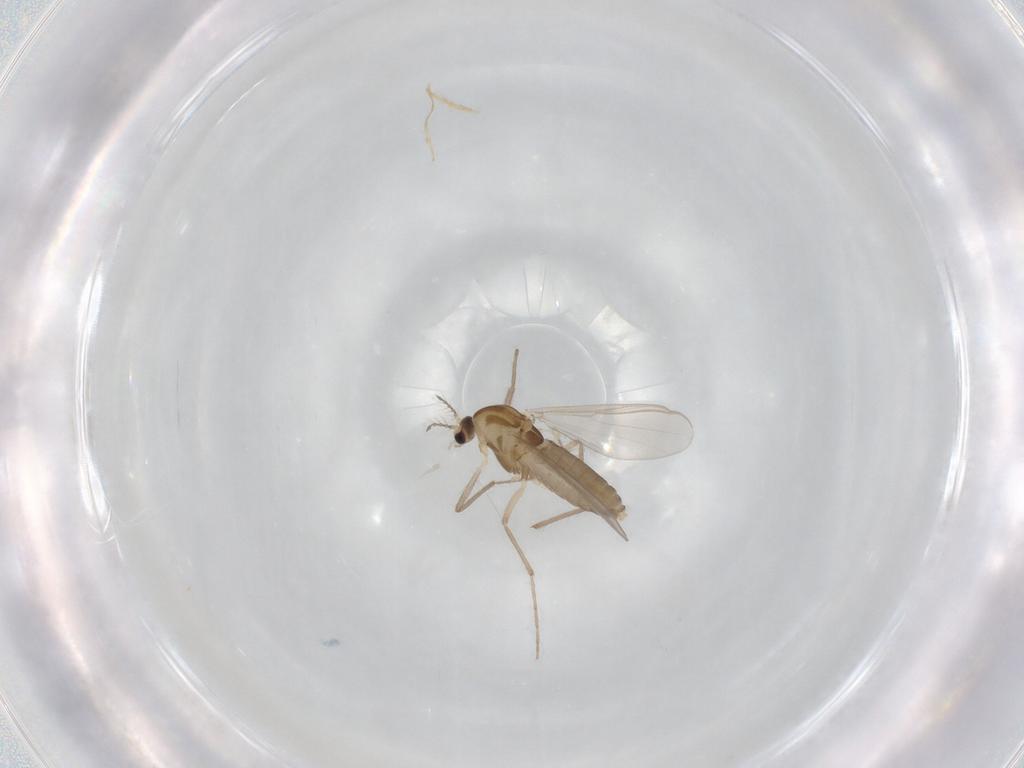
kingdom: Animalia
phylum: Arthropoda
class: Insecta
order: Diptera
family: Chironomidae
